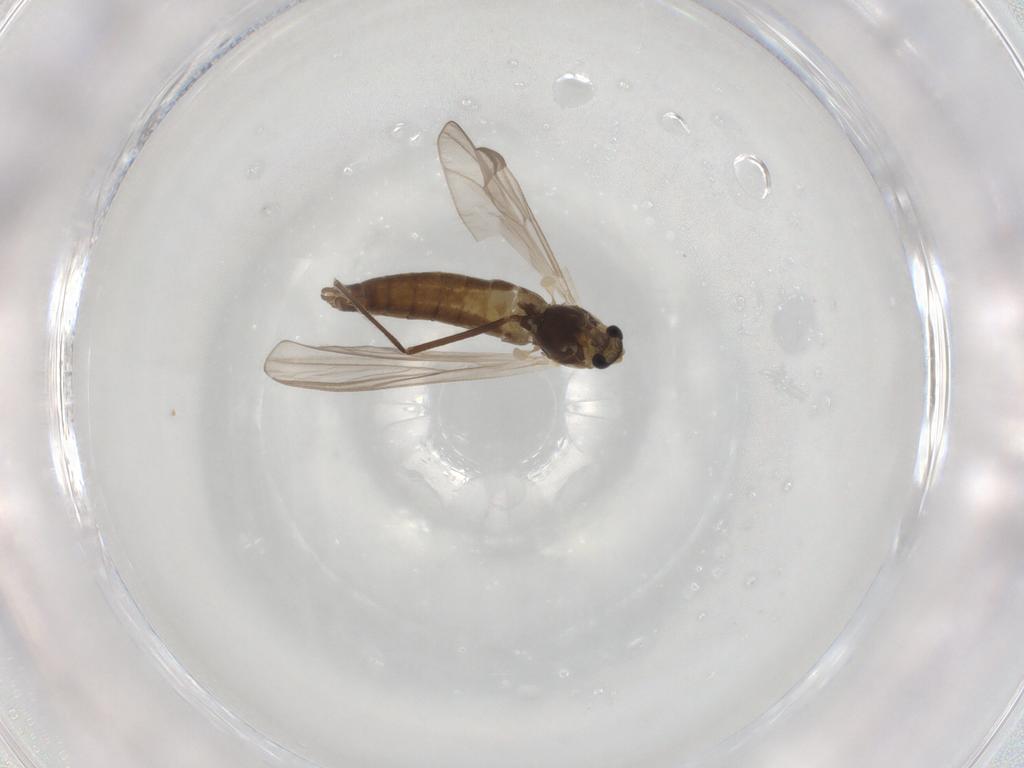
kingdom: Animalia
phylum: Arthropoda
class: Insecta
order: Diptera
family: Chironomidae
